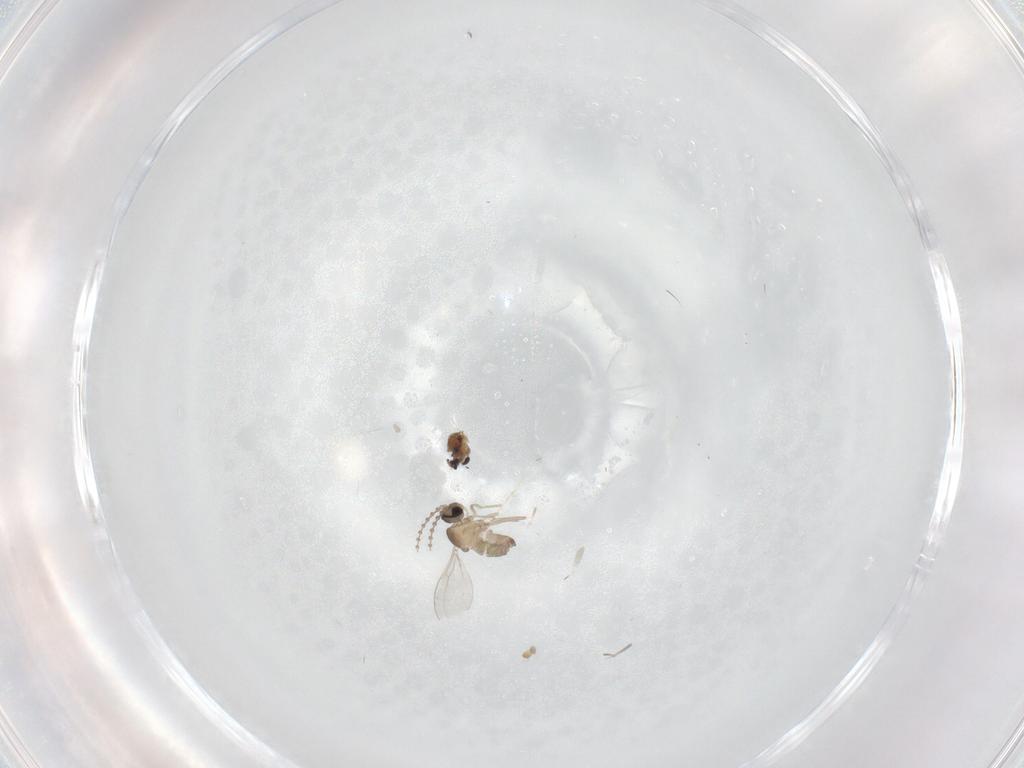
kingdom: Animalia
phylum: Arthropoda
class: Insecta
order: Diptera
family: Cecidomyiidae
